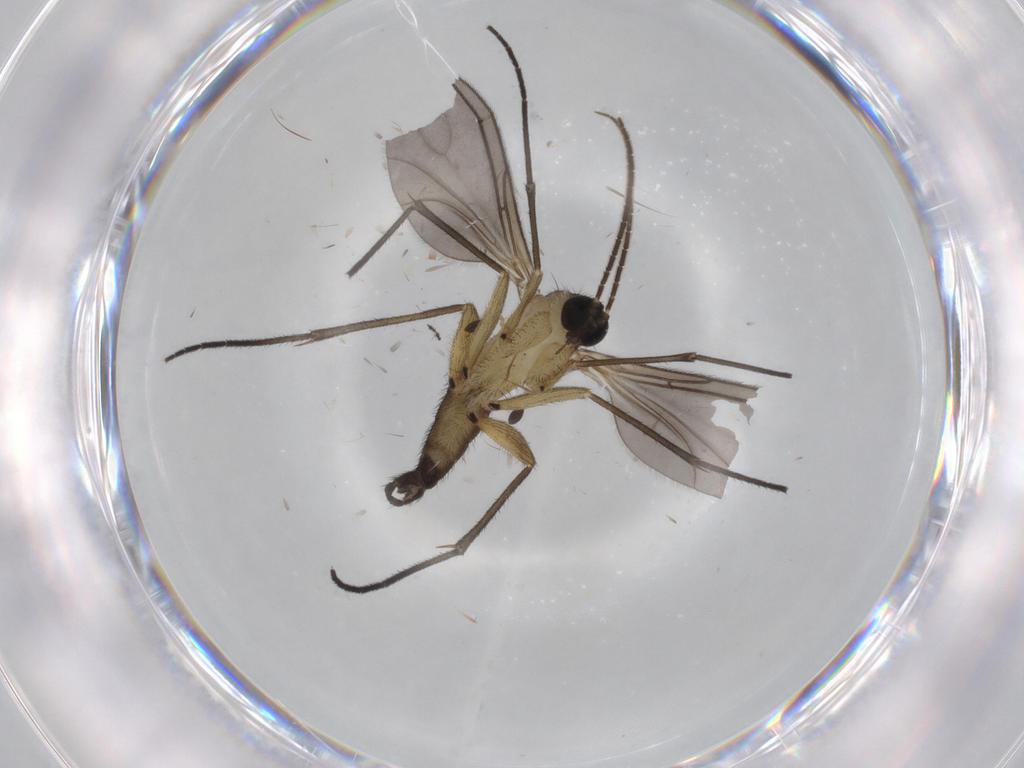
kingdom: Animalia
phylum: Arthropoda
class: Insecta
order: Diptera
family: Sciaridae
